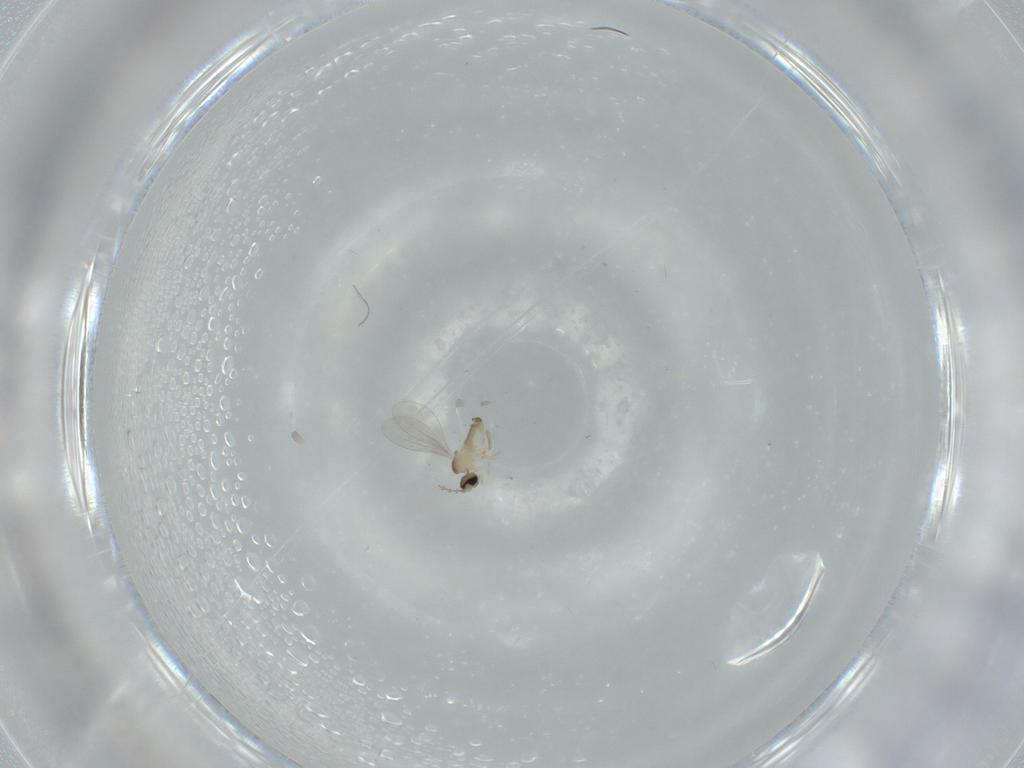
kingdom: Animalia
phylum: Arthropoda
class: Insecta
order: Diptera
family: Cecidomyiidae
